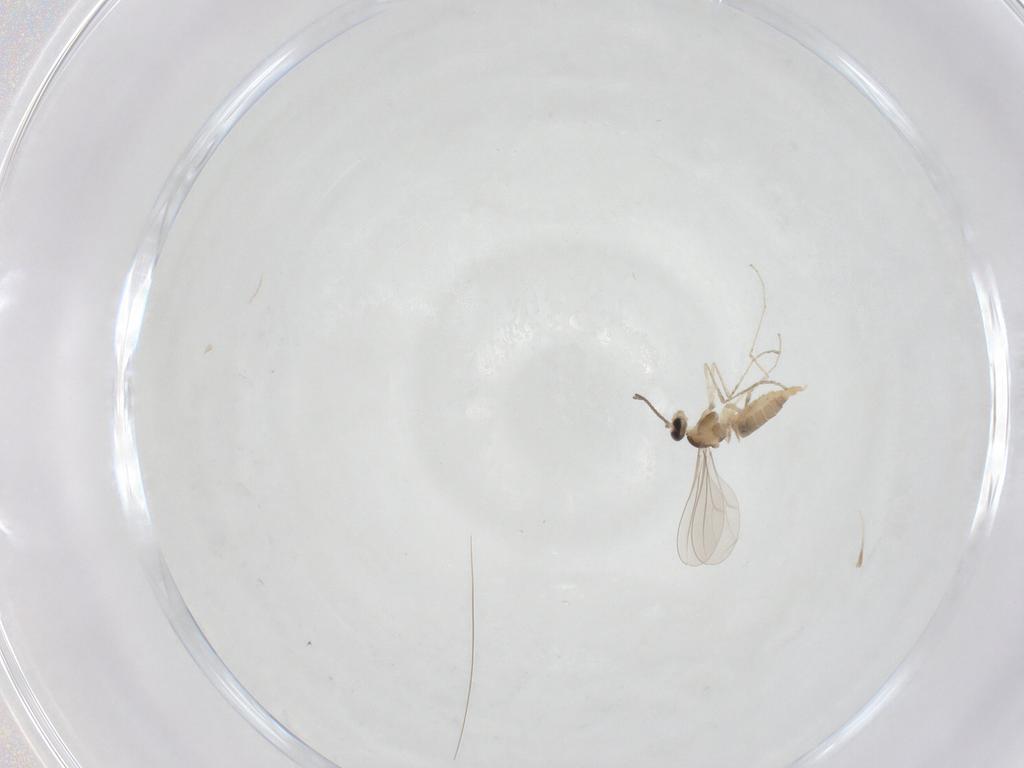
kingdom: Animalia
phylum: Arthropoda
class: Insecta
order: Diptera
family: Cecidomyiidae
